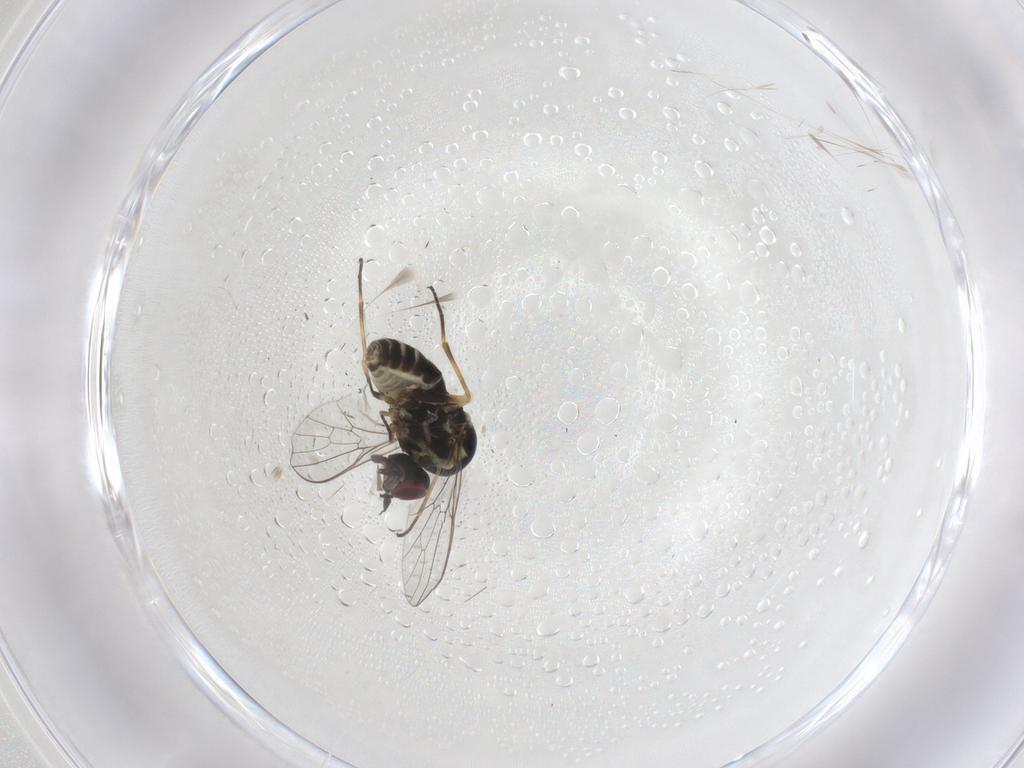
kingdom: Animalia
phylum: Arthropoda
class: Insecta
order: Diptera
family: Bombyliidae
